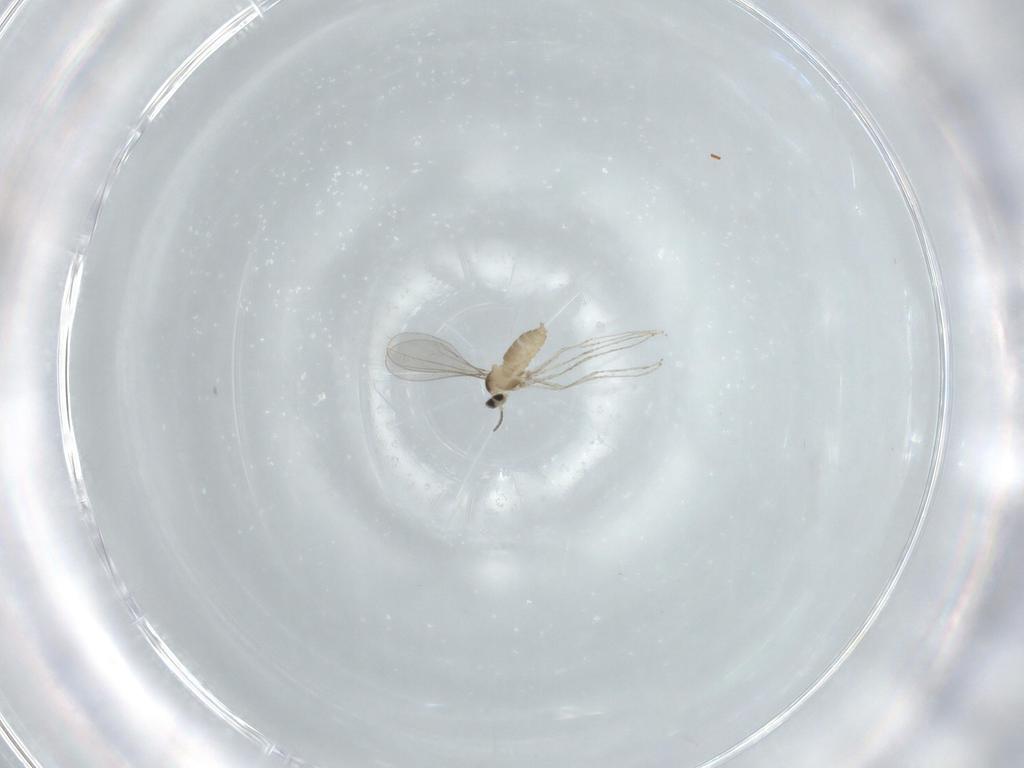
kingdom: Animalia
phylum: Arthropoda
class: Insecta
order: Diptera
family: Cecidomyiidae
